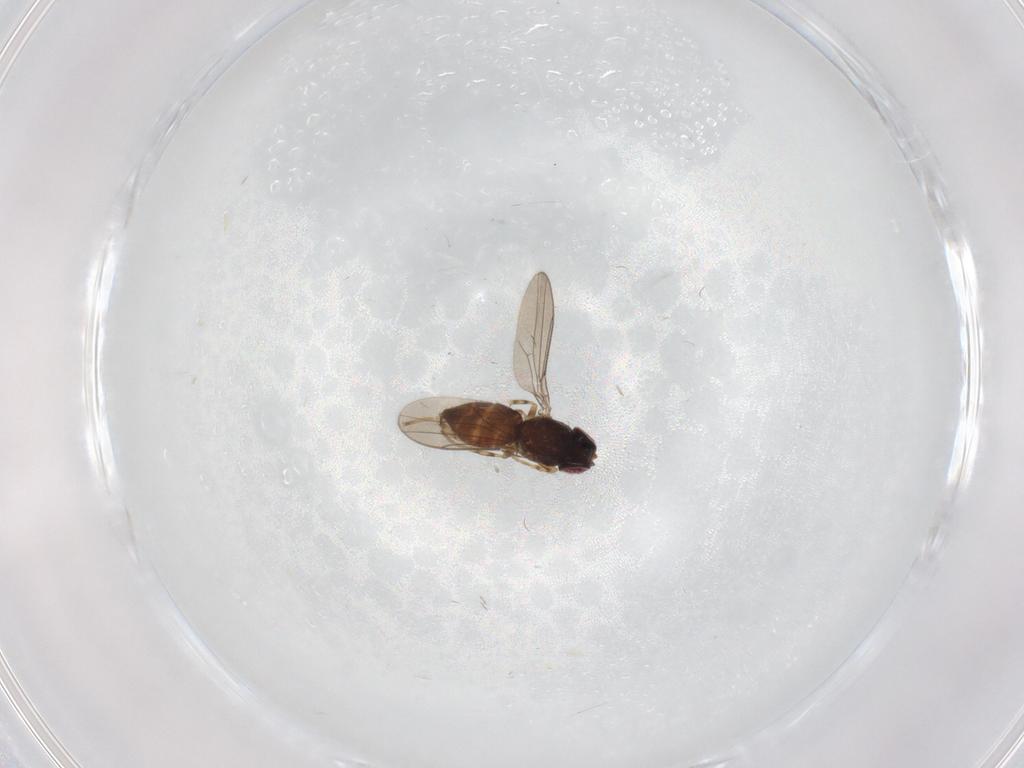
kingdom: Animalia
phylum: Arthropoda
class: Insecta
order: Diptera
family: Chloropidae
